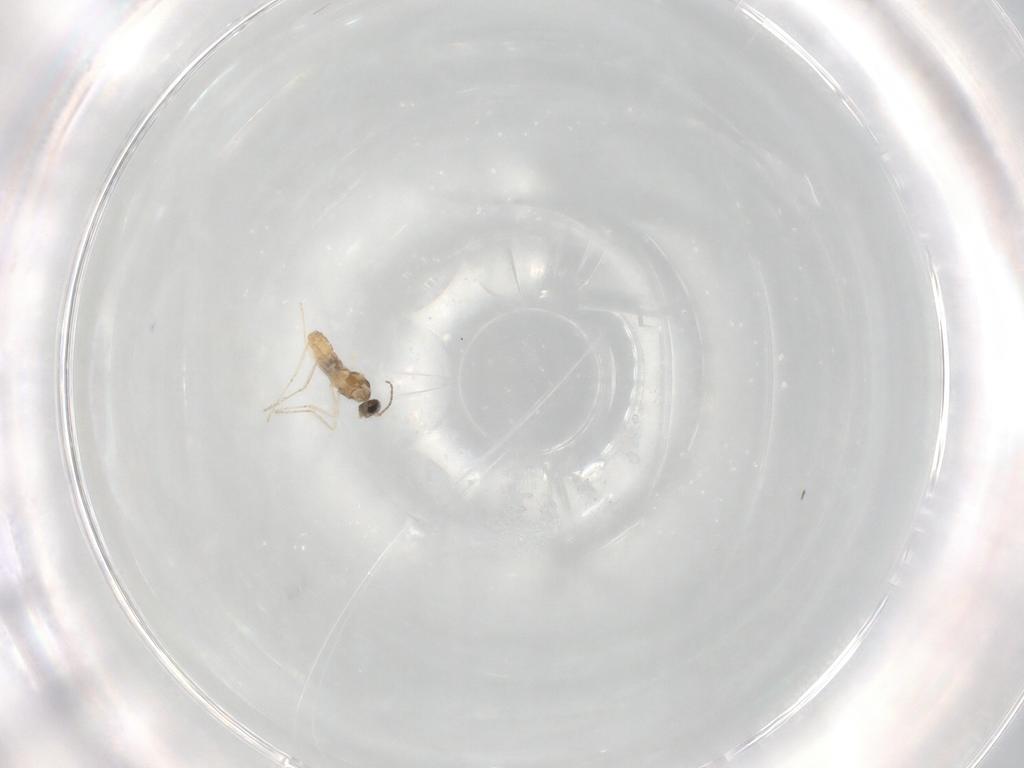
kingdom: Animalia
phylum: Arthropoda
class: Insecta
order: Diptera
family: Cecidomyiidae
